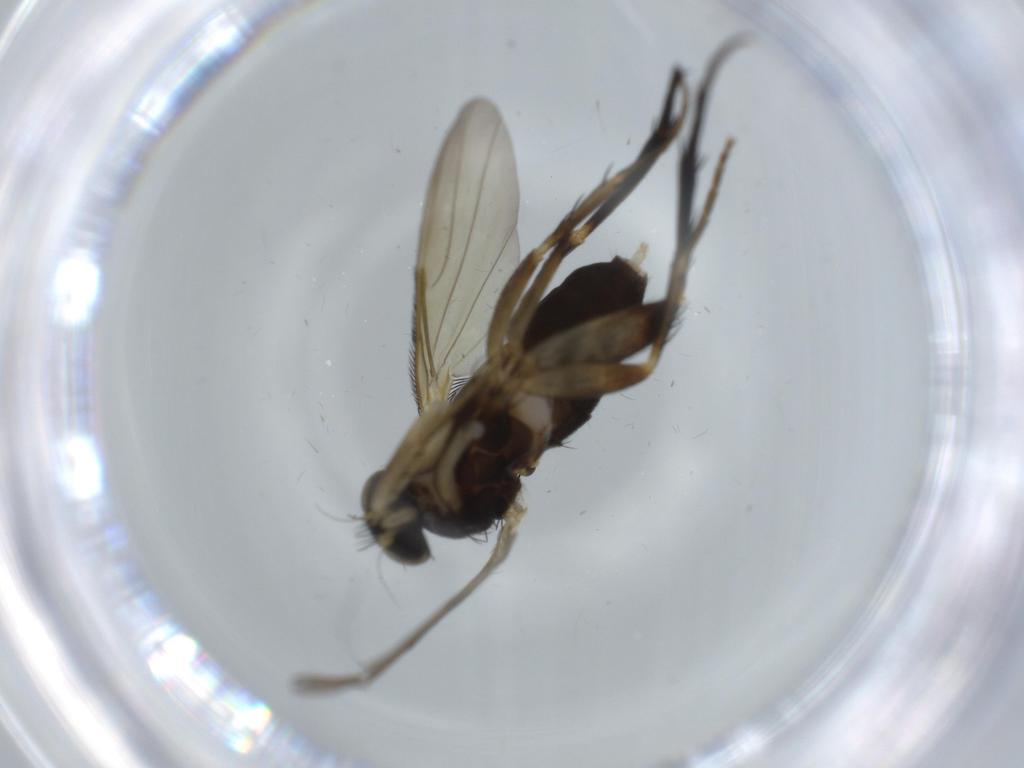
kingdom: Animalia
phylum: Arthropoda
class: Insecta
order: Diptera
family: Phoridae
